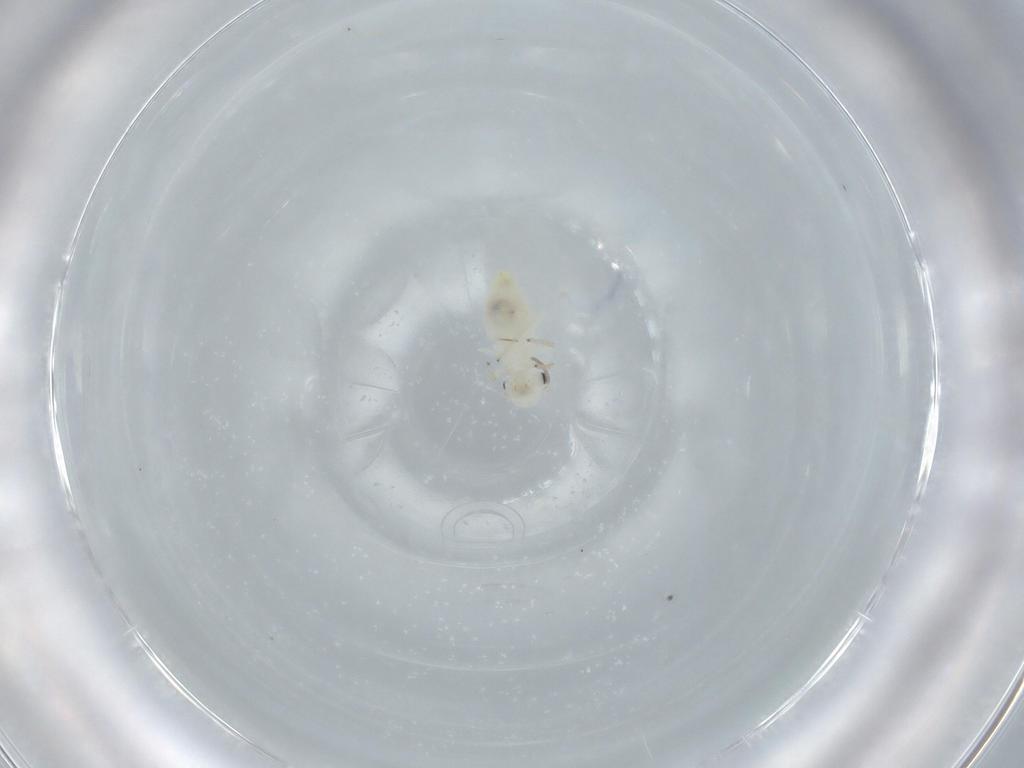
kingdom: Animalia
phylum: Arthropoda
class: Insecta
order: Psocodea
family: Caeciliusidae
